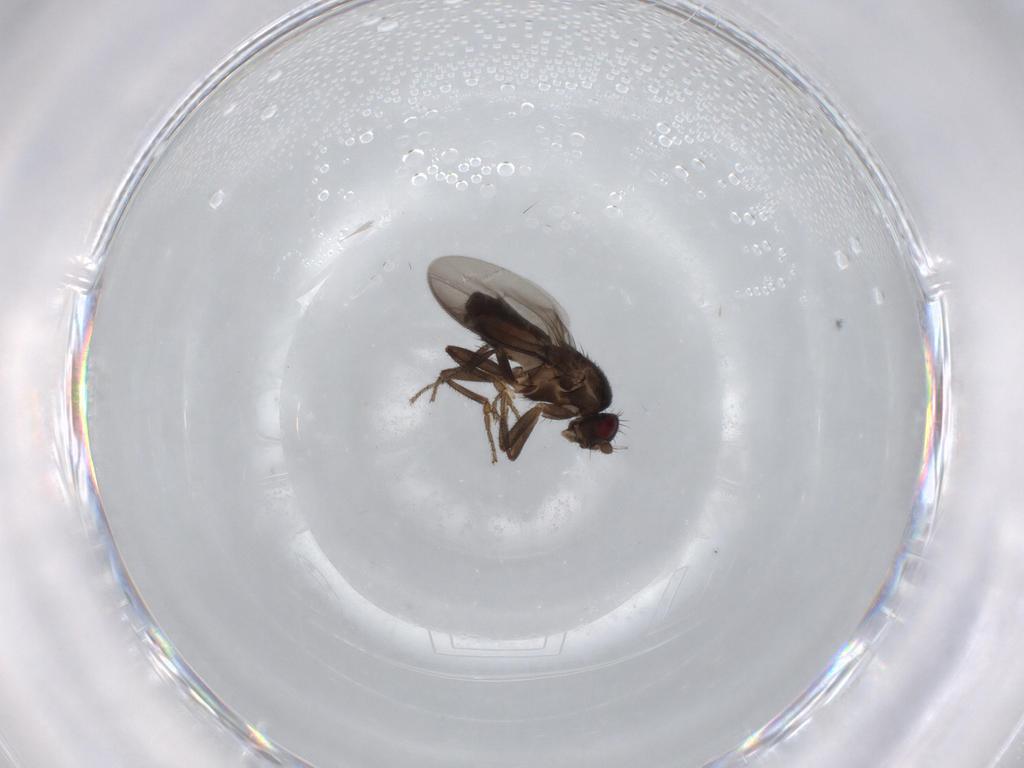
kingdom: Animalia
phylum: Arthropoda
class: Insecta
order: Diptera
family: Sphaeroceridae
